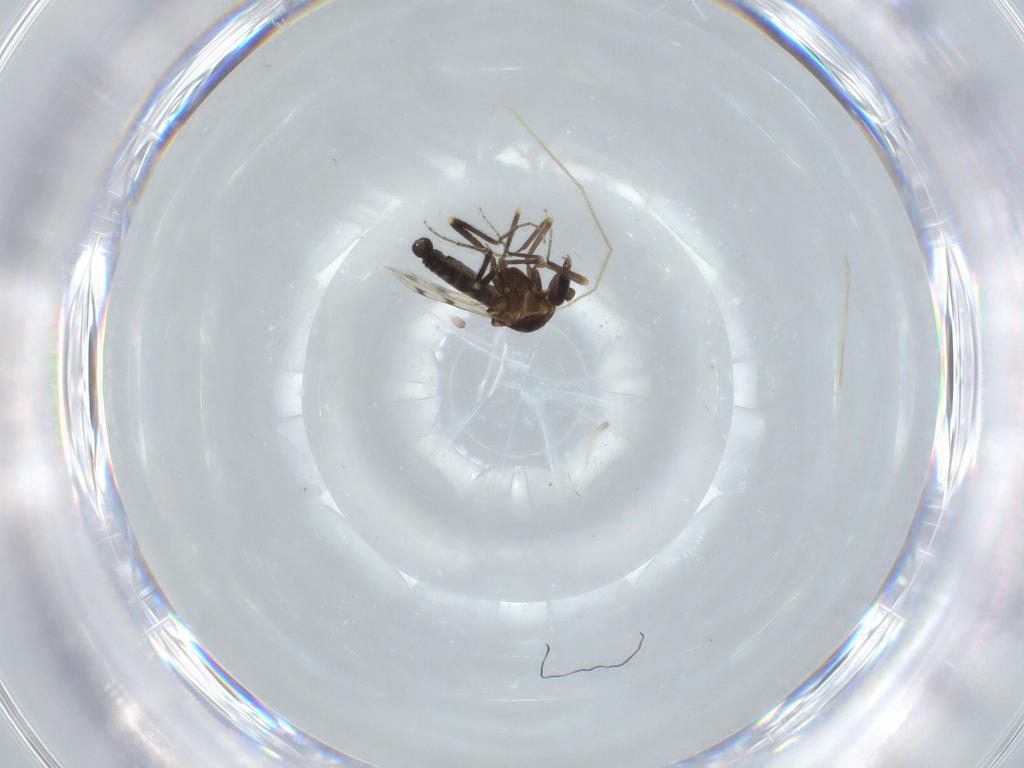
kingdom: Animalia
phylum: Arthropoda
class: Insecta
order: Diptera
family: Ceratopogonidae
